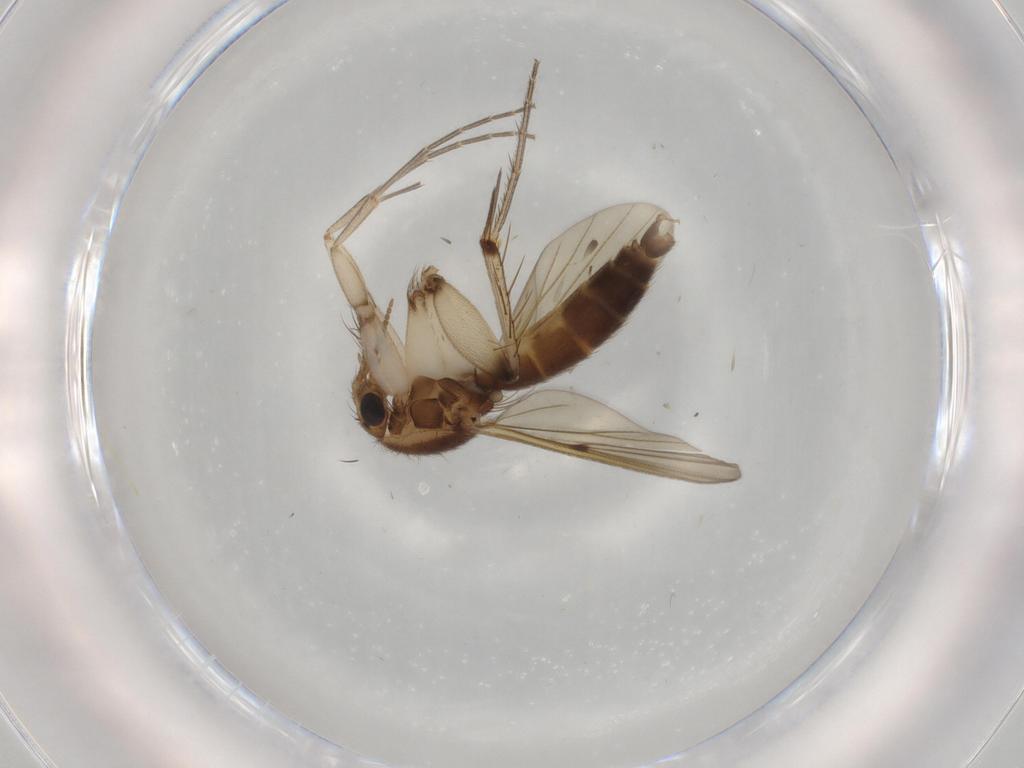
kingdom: Animalia
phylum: Arthropoda
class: Insecta
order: Diptera
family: Mycetophilidae
